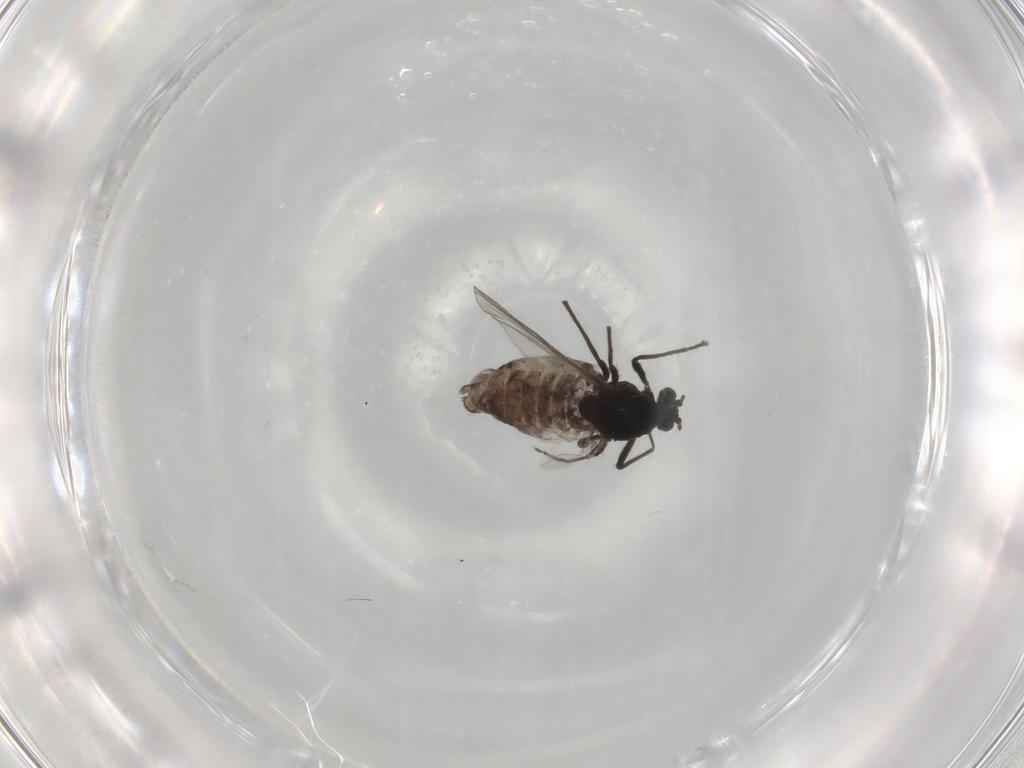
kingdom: Animalia
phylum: Arthropoda
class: Insecta
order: Diptera
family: Chironomidae
